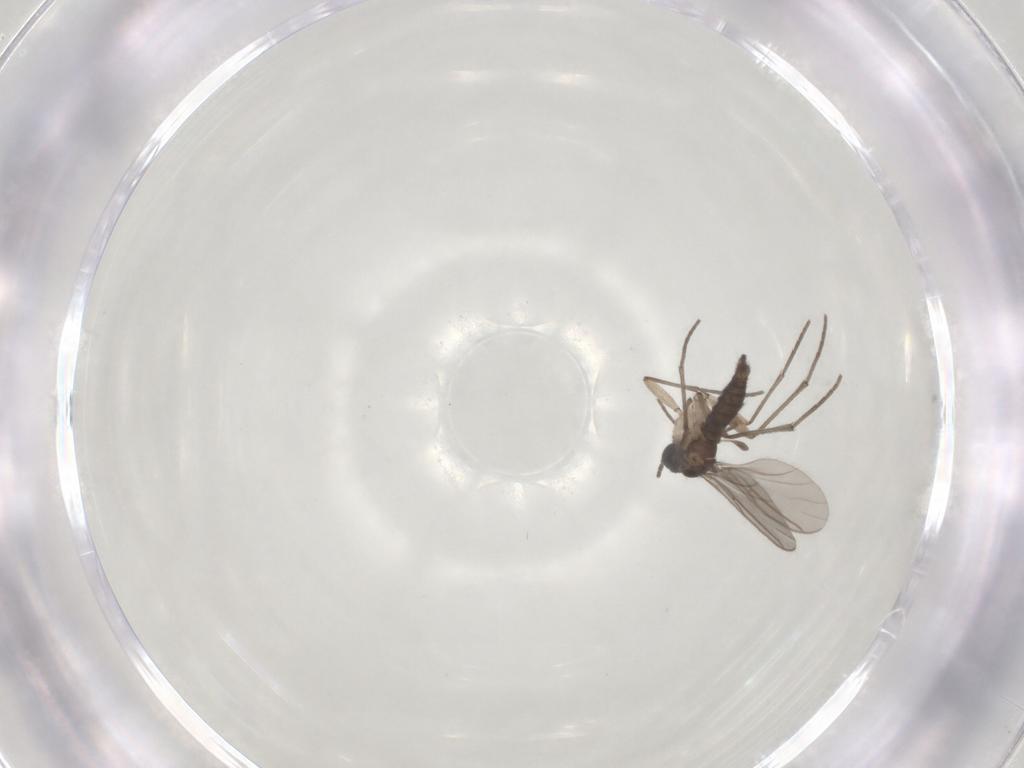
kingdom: Animalia
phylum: Arthropoda
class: Insecta
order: Diptera
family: Sciaridae
